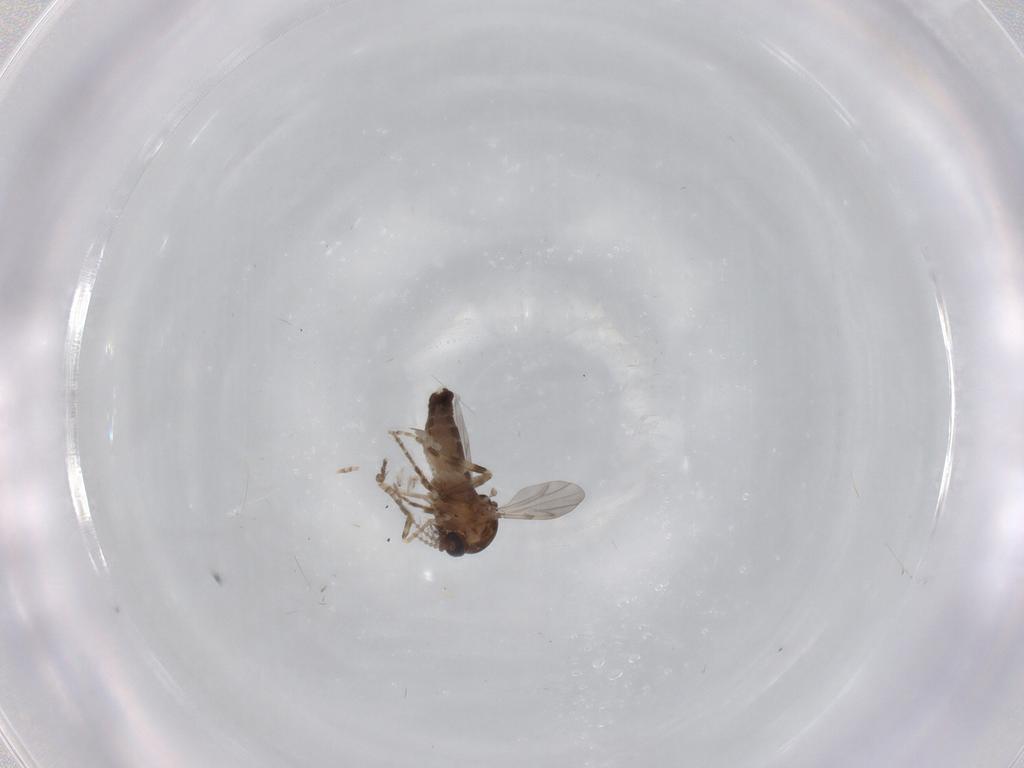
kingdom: Animalia
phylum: Arthropoda
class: Insecta
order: Diptera
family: Ceratopogonidae
